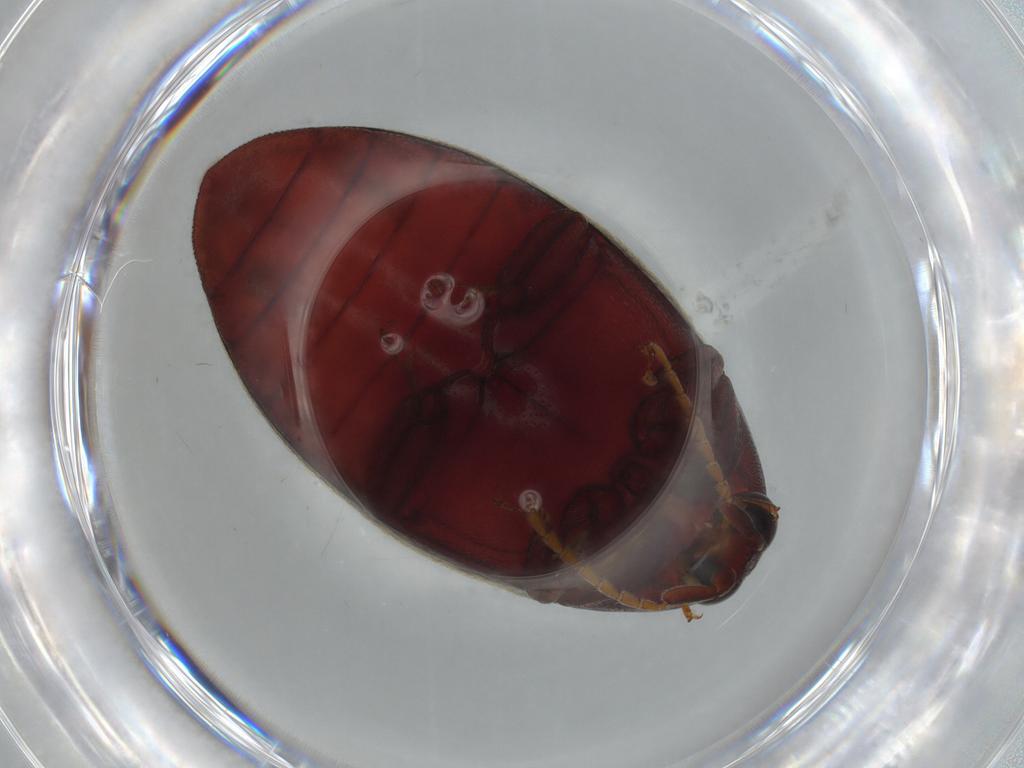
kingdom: Animalia
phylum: Arthropoda
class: Insecta
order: Coleoptera
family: Chelonariidae
